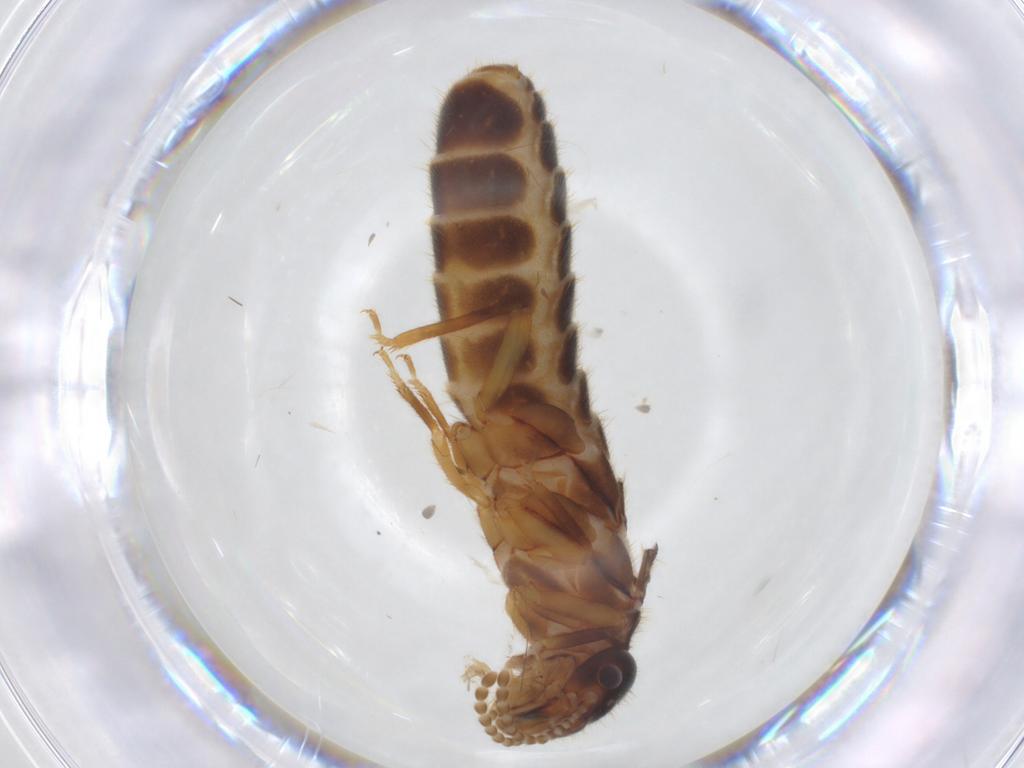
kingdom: Animalia
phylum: Arthropoda
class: Insecta
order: Blattodea
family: Termitidae
